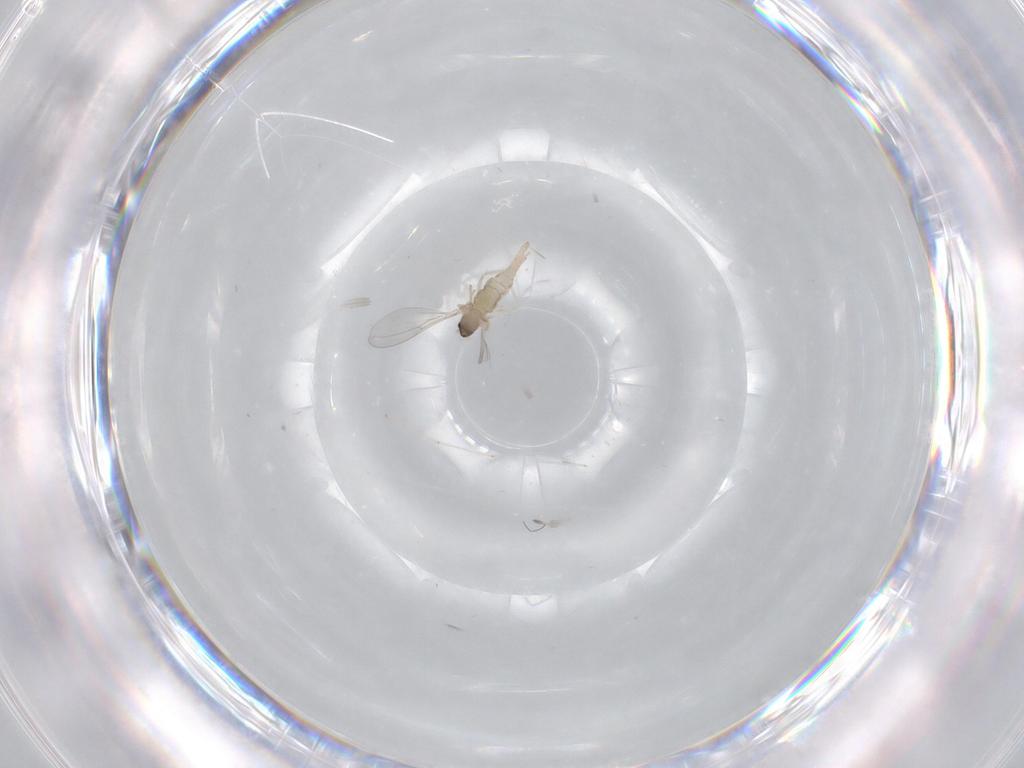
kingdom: Animalia
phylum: Arthropoda
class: Insecta
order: Diptera
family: Cecidomyiidae
